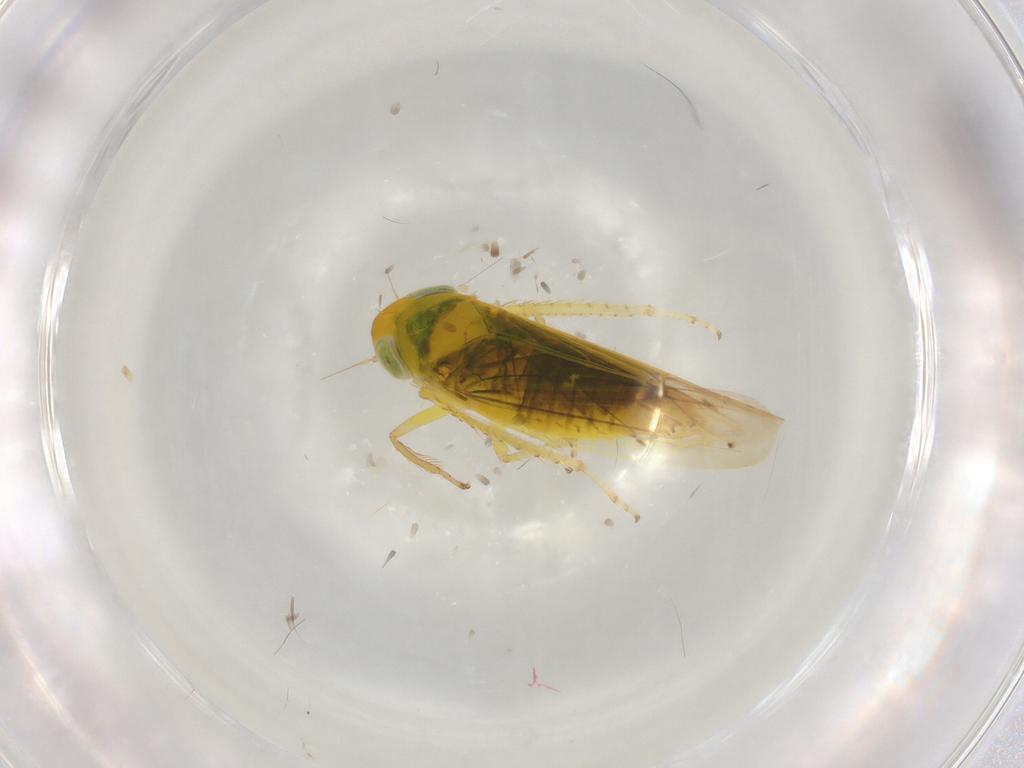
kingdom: Animalia
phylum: Arthropoda
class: Insecta
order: Hemiptera
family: Cicadellidae
